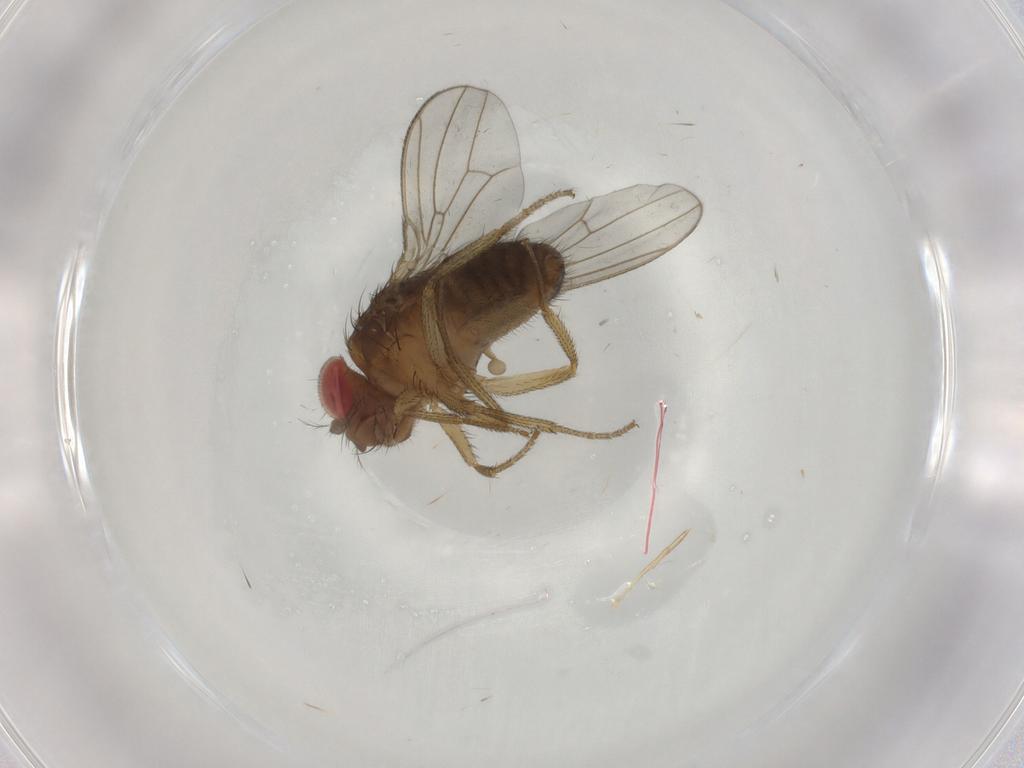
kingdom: Animalia
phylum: Arthropoda
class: Insecta
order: Diptera
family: Drosophilidae
